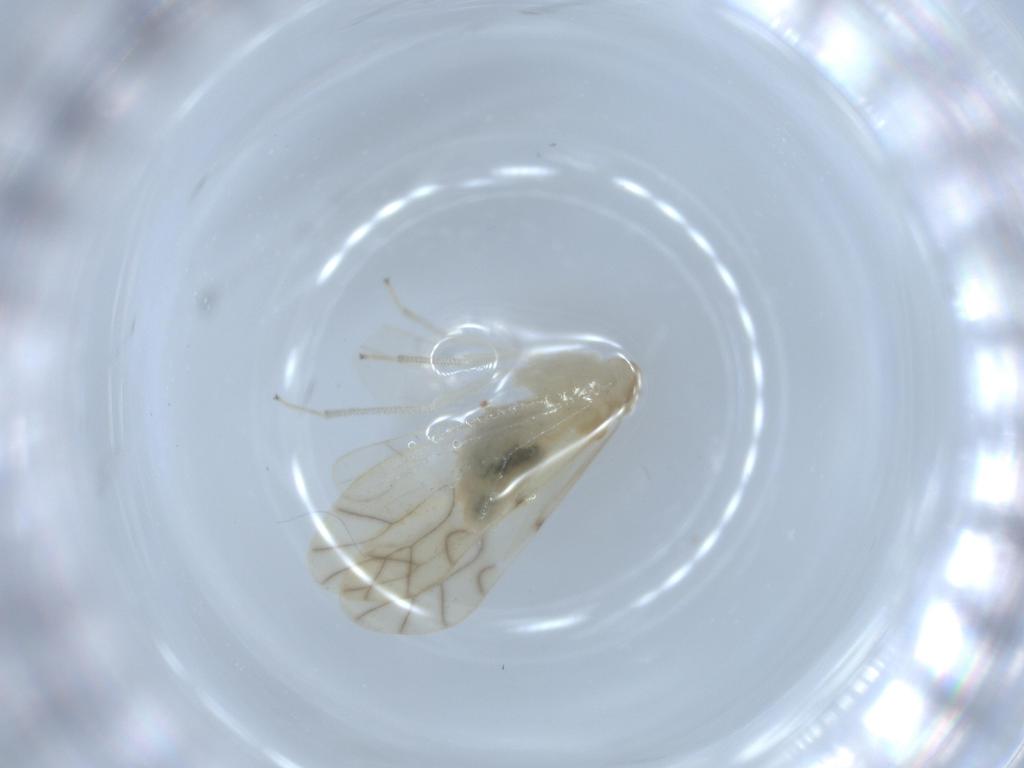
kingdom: Animalia
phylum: Arthropoda
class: Insecta
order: Psocodea
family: Caeciliusidae
